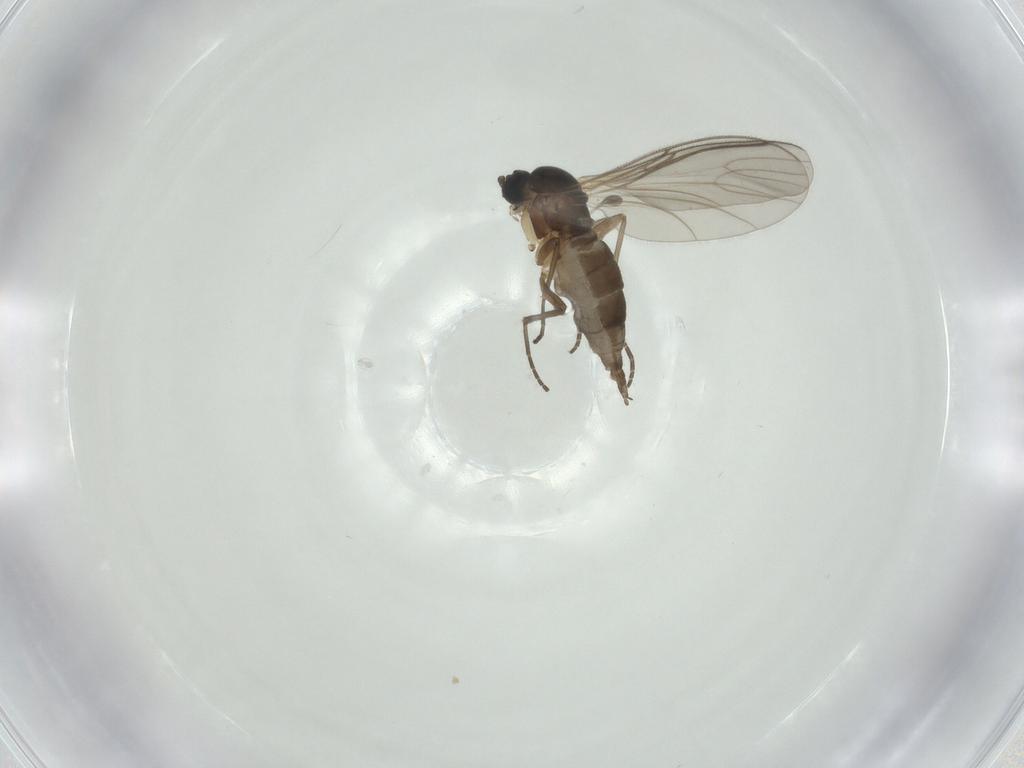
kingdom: Animalia
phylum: Arthropoda
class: Insecta
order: Diptera
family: Sciaridae
